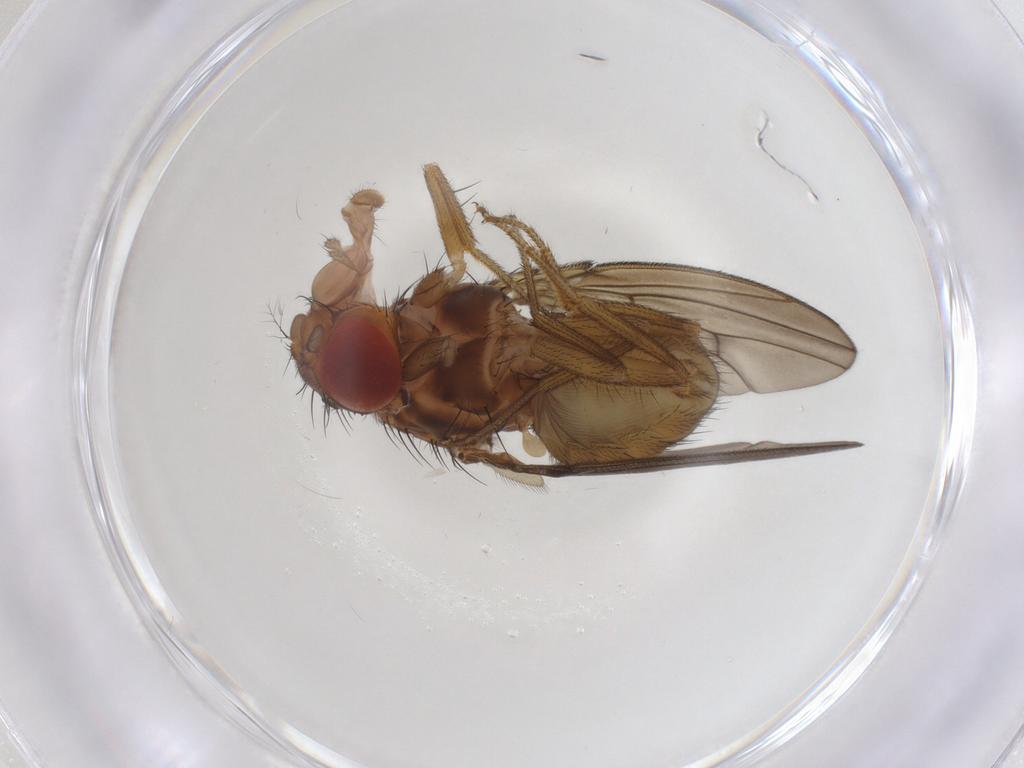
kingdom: Animalia
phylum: Arthropoda
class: Insecta
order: Diptera
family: Drosophilidae
